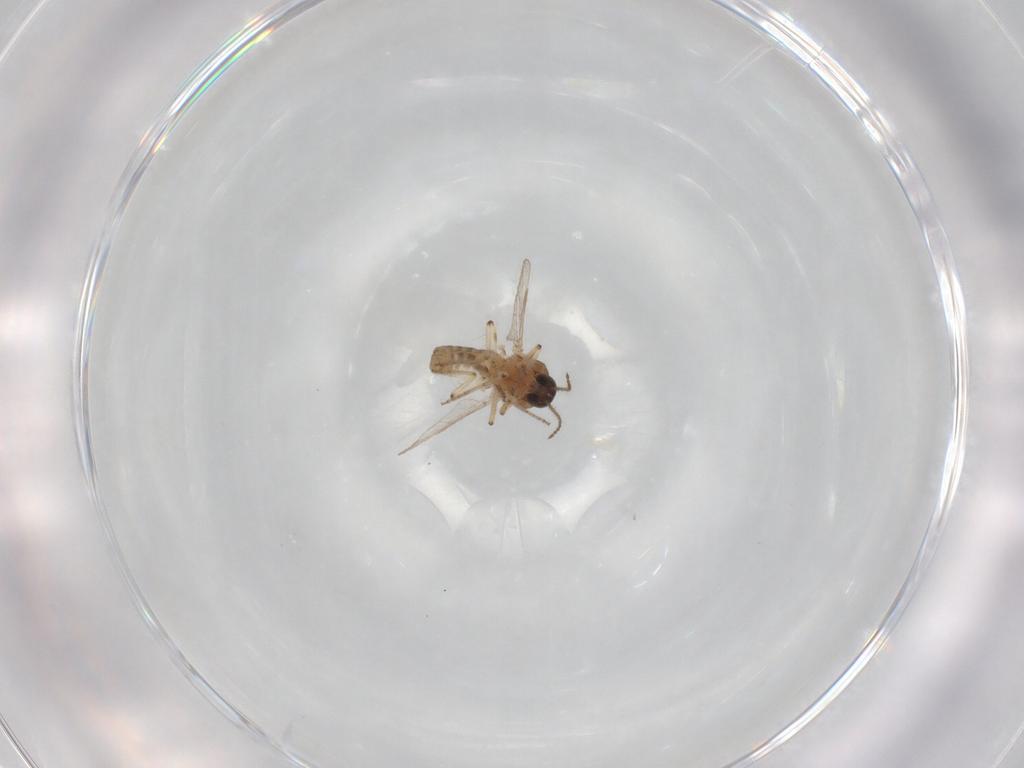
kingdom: Animalia
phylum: Arthropoda
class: Insecta
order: Diptera
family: Ceratopogonidae
